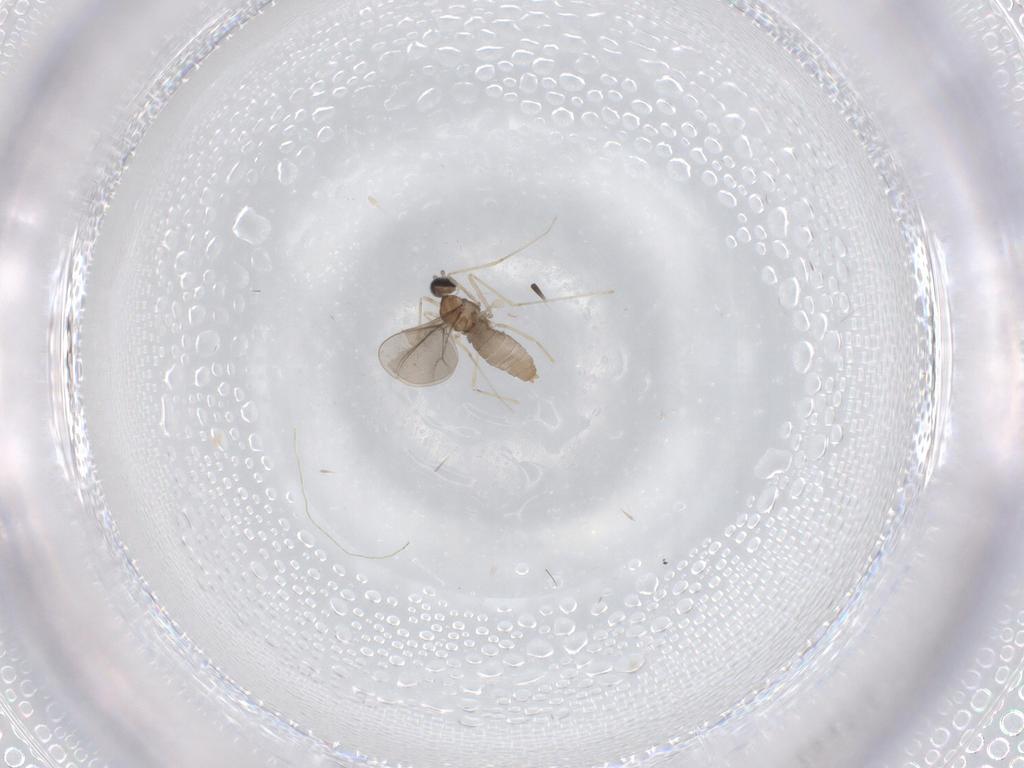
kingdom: Animalia
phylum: Arthropoda
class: Insecta
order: Diptera
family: Cecidomyiidae
